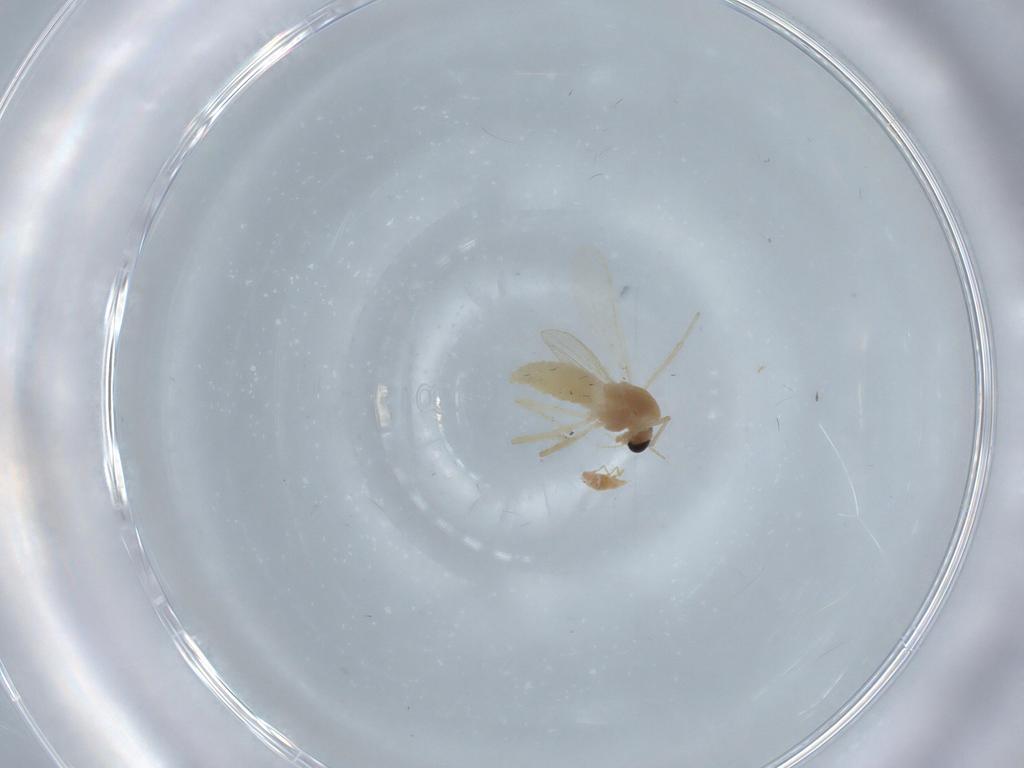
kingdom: Animalia
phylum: Arthropoda
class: Insecta
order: Diptera
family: Chironomidae
